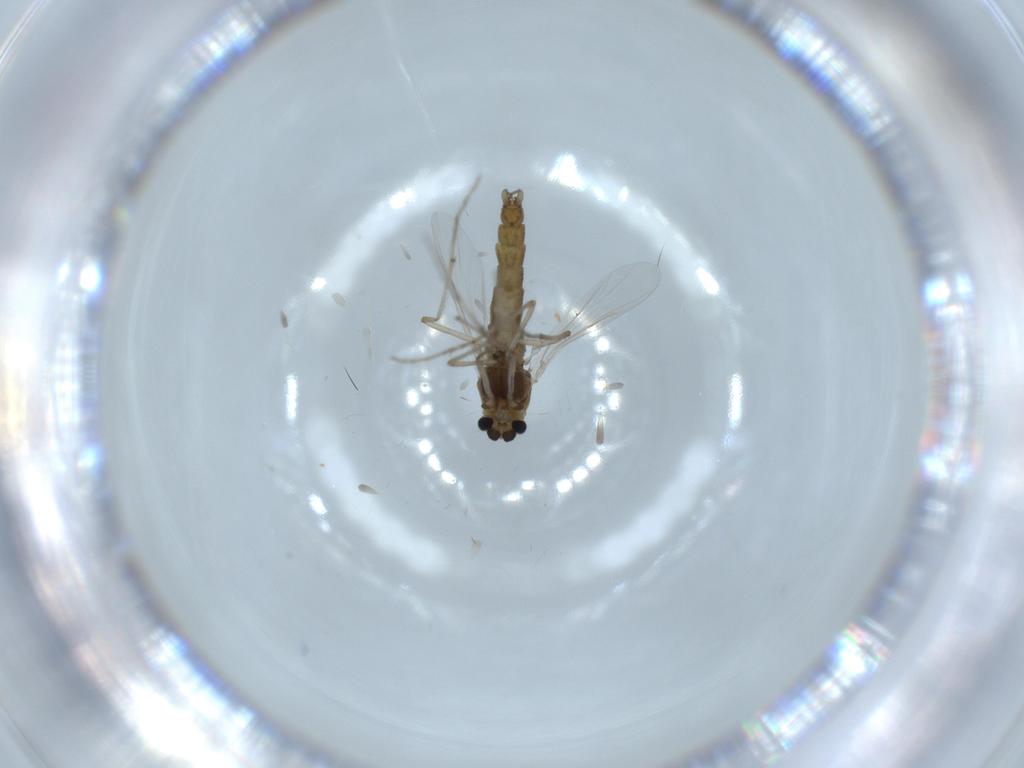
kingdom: Animalia
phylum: Arthropoda
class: Insecta
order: Diptera
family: Chironomidae
